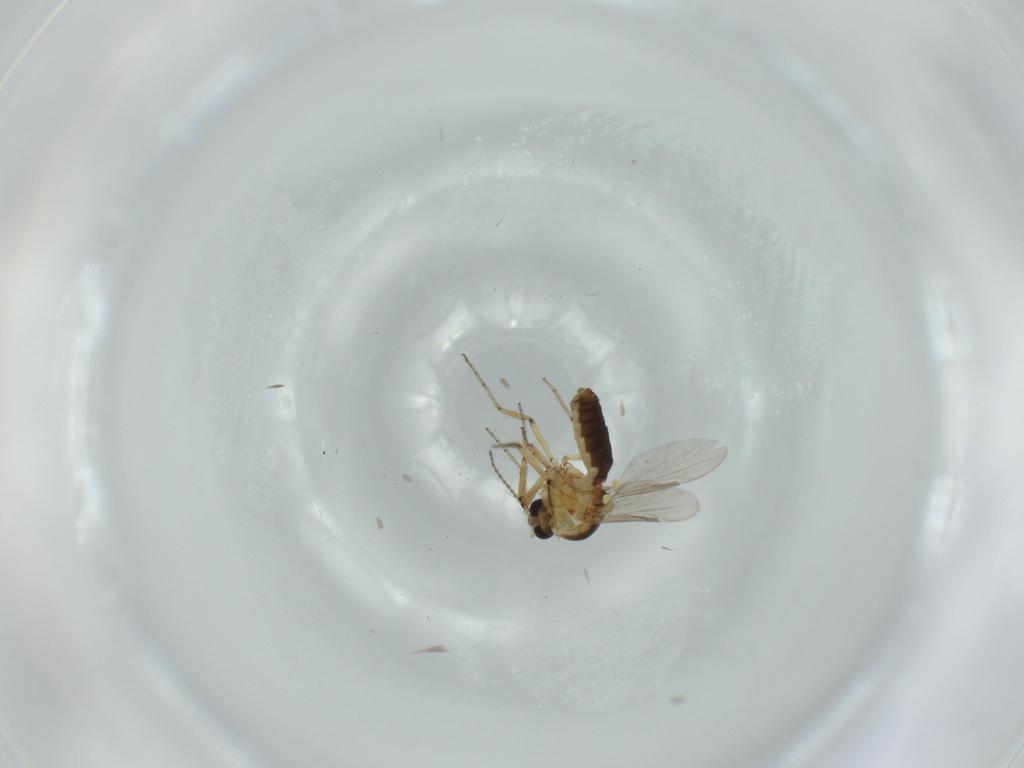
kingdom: Animalia
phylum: Arthropoda
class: Insecta
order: Diptera
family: Ceratopogonidae
